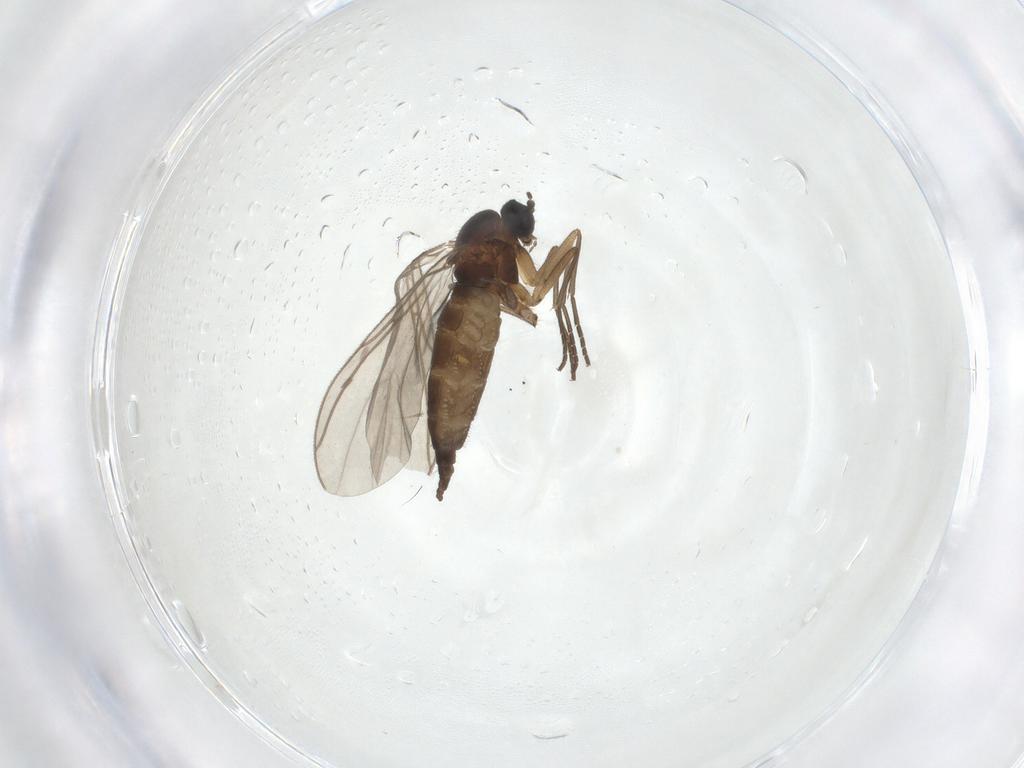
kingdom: Animalia
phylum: Arthropoda
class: Insecta
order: Diptera
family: Sciaridae
